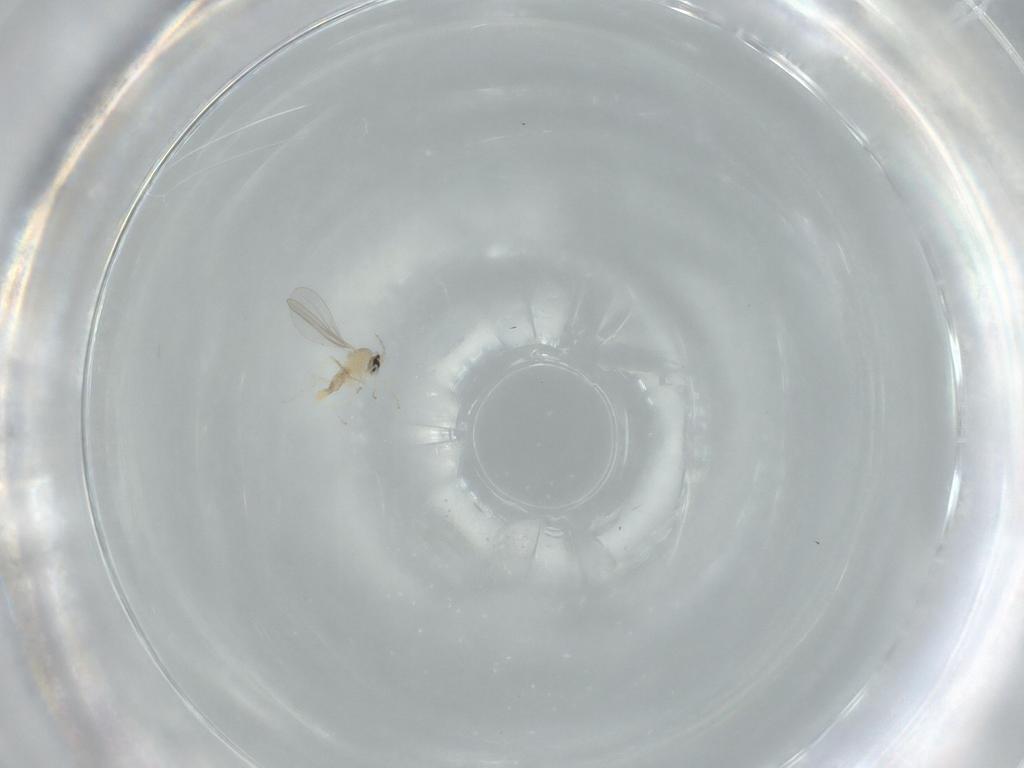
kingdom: Animalia
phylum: Arthropoda
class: Insecta
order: Diptera
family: Cecidomyiidae
